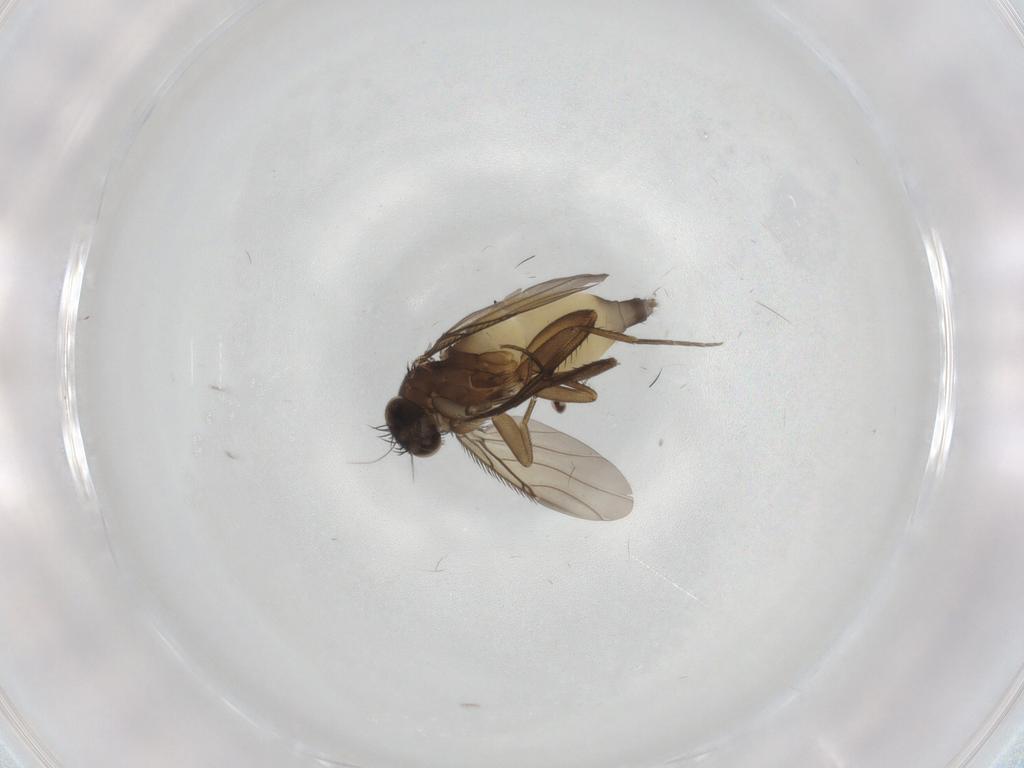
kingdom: Animalia
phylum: Arthropoda
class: Insecta
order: Diptera
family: Phoridae
